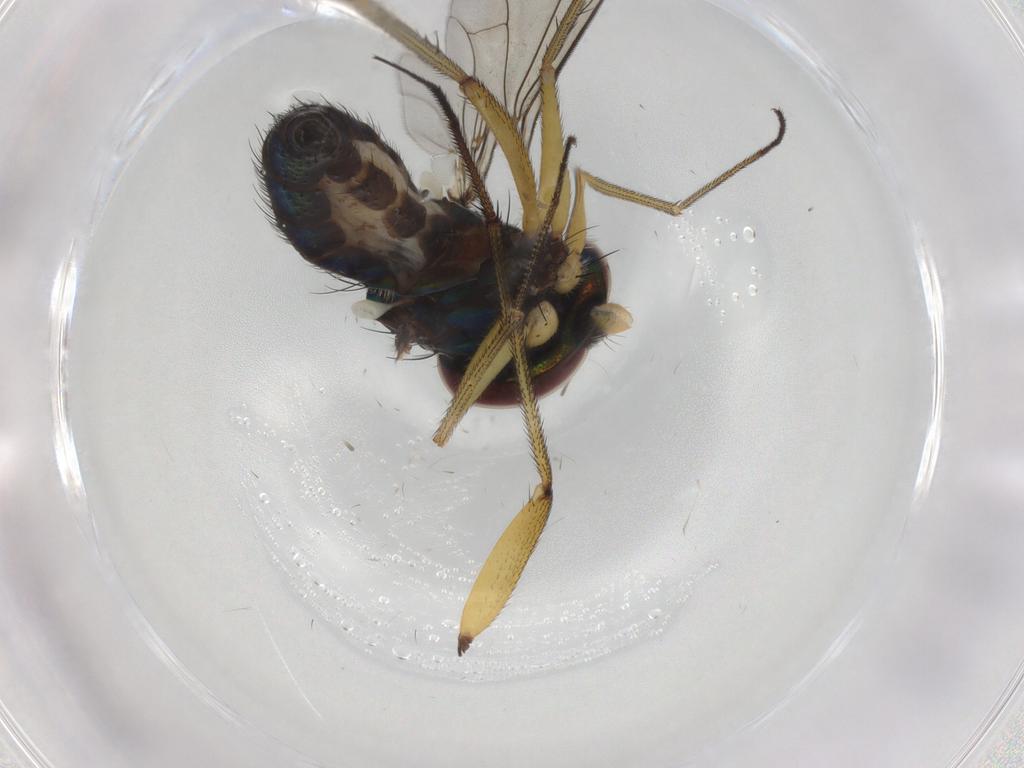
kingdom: Animalia
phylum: Arthropoda
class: Insecta
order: Diptera
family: Dolichopodidae
